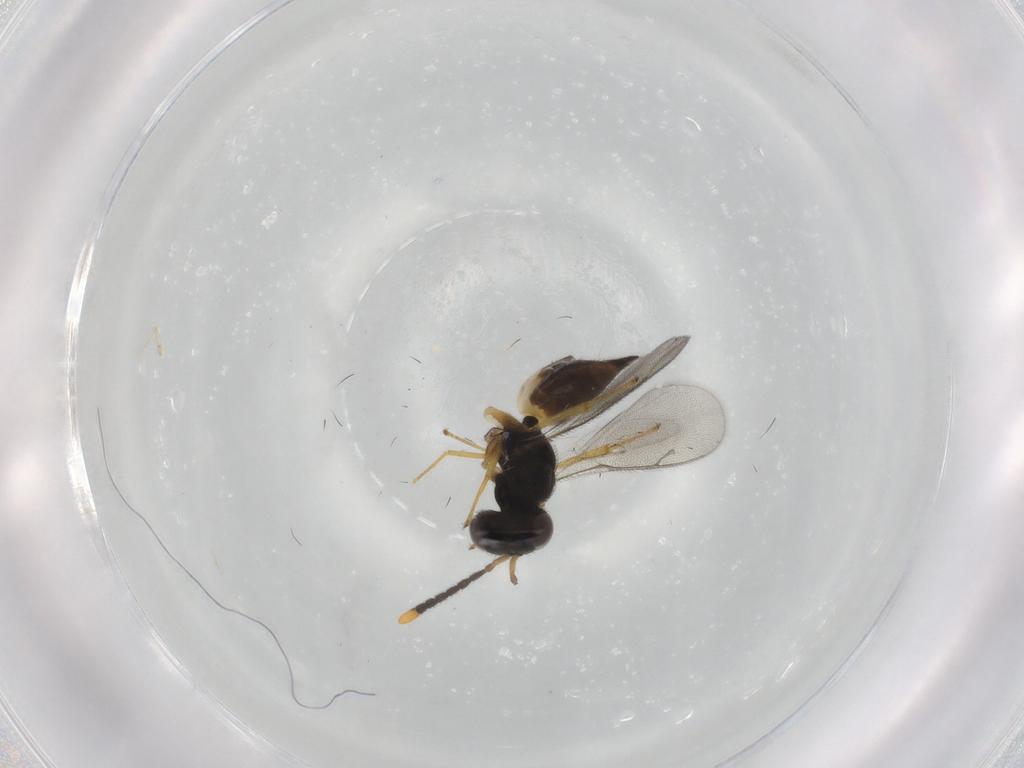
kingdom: Animalia
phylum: Arthropoda
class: Insecta
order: Hymenoptera
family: Pteromalidae
